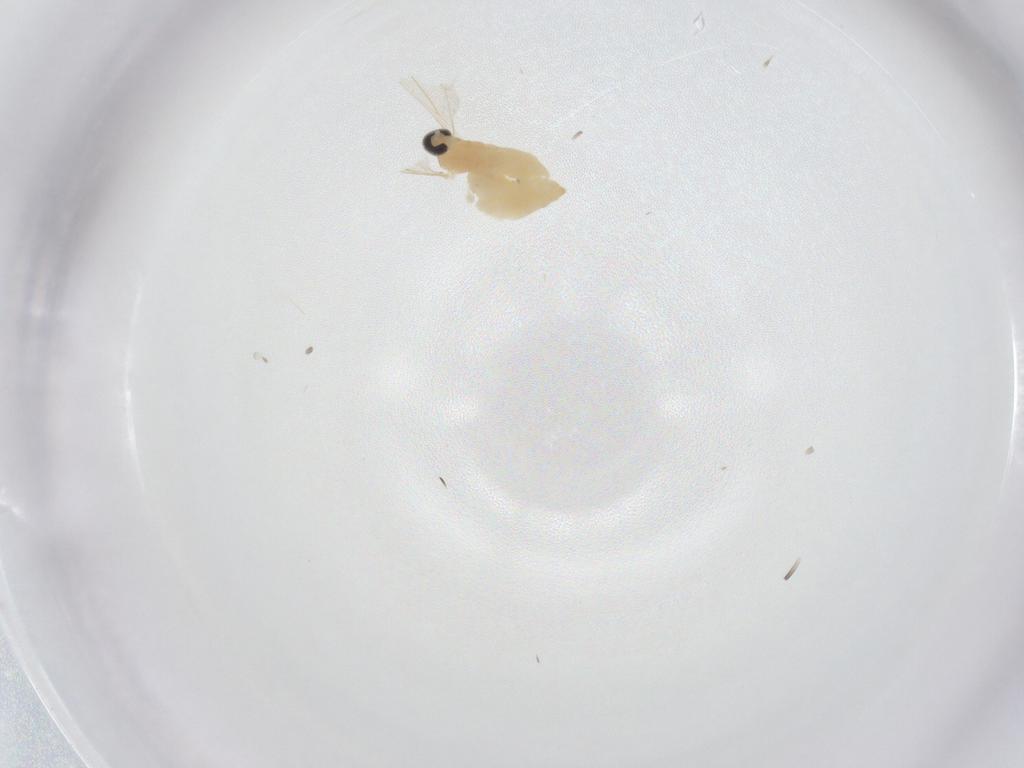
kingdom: Animalia
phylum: Arthropoda
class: Insecta
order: Diptera
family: Cecidomyiidae
